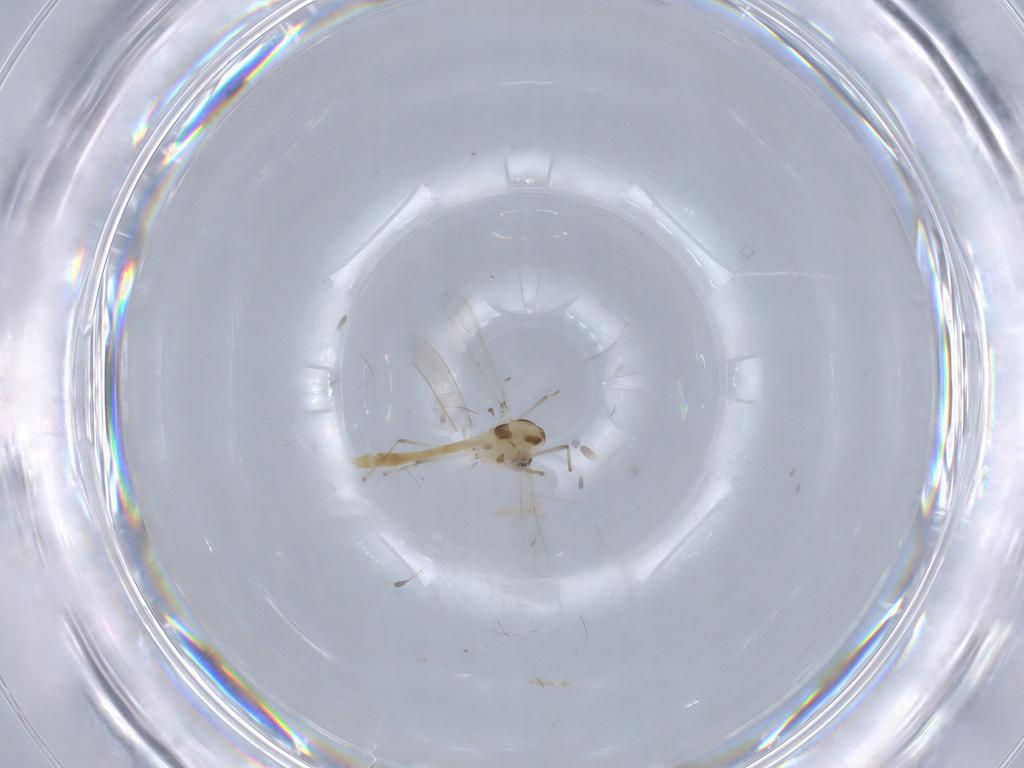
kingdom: Animalia
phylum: Arthropoda
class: Insecta
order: Diptera
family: Chironomidae
